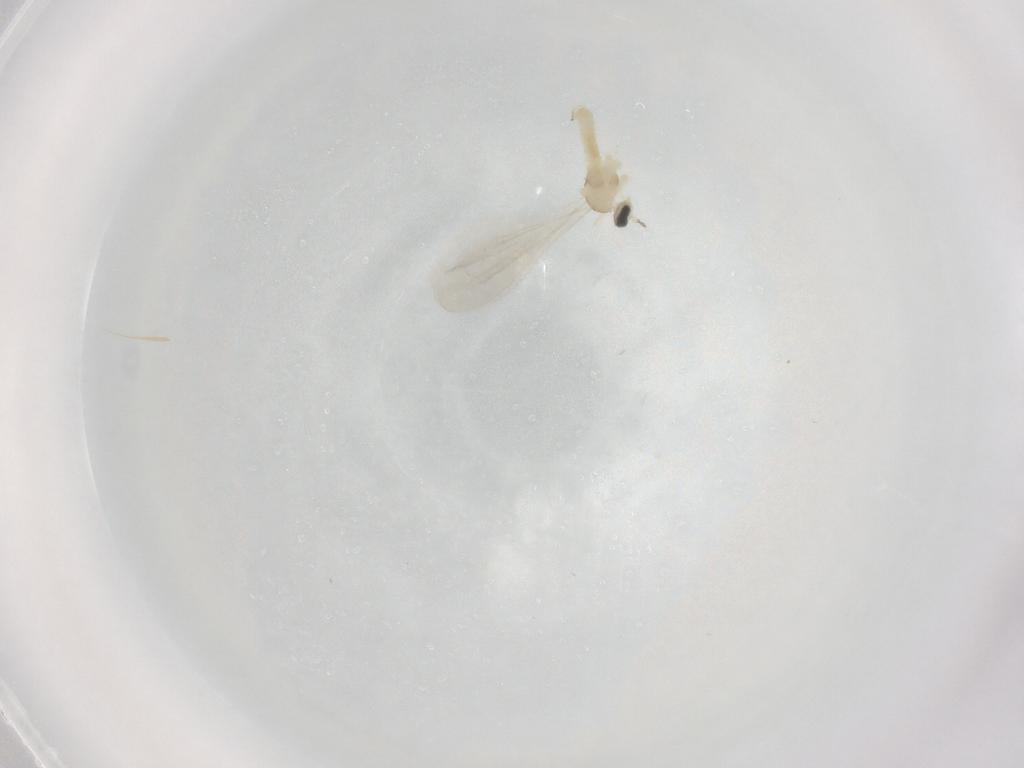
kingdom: Animalia
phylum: Arthropoda
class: Insecta
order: Diptera
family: Cecidomyiidae
